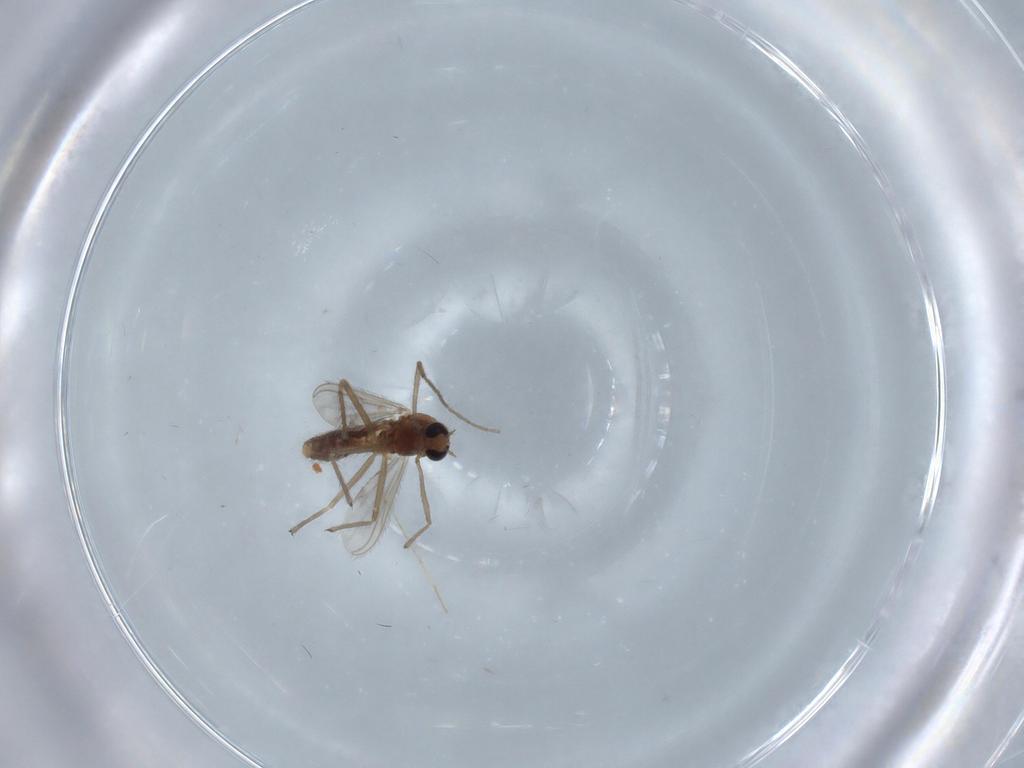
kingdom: Animalia
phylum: Arthropoda
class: Insecta
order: Diptera
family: Chironomidae
